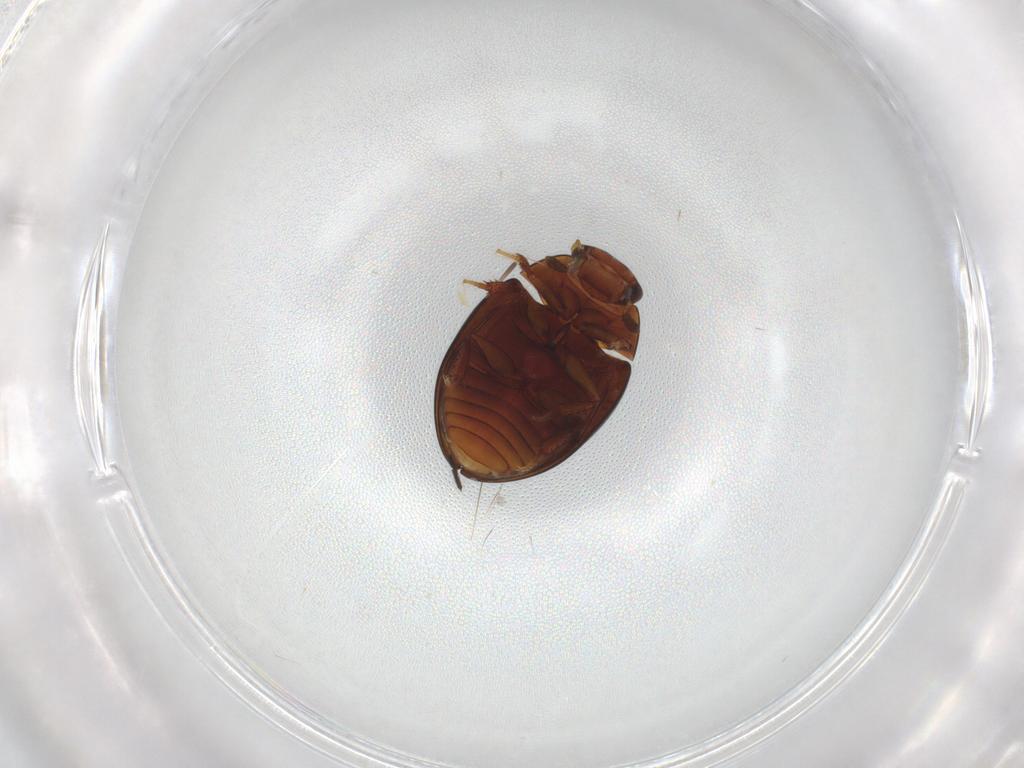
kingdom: Animalia
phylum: Arthropoda
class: Insecta
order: Coleoptera
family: Hydrophilidae
